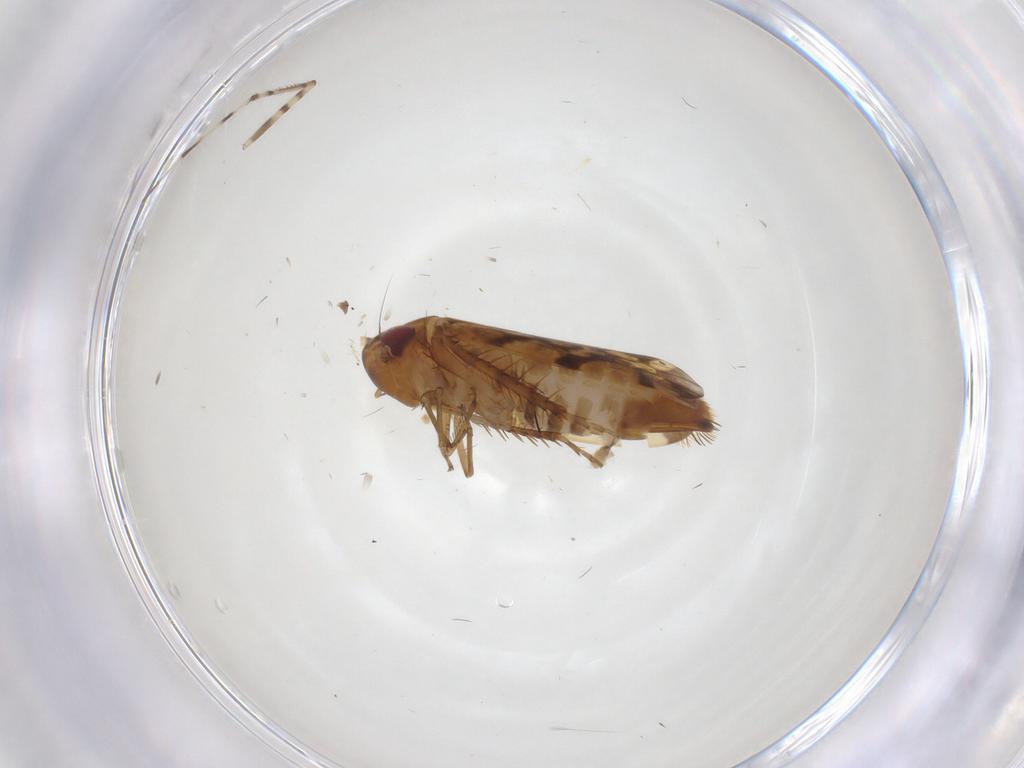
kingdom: Animalia
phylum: Arthropoda
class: Insecta
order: Hemiptera
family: Cicadellidae
